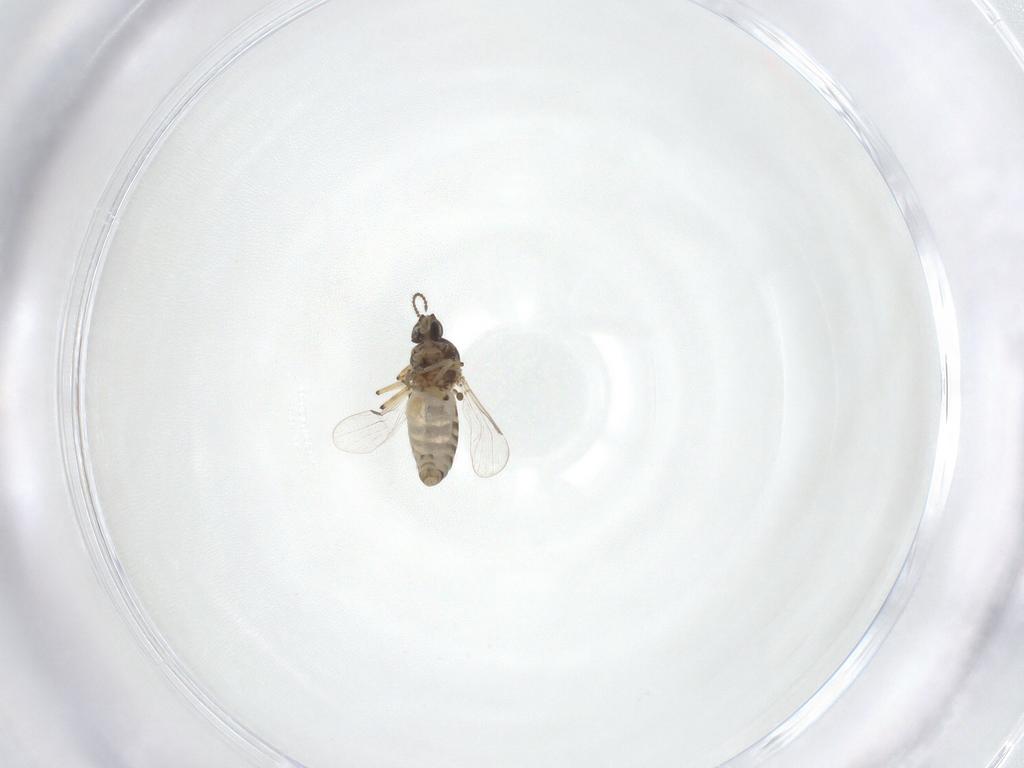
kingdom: Animalia
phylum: Arthropoda
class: Insecta
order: Diptera
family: Ceratopogonidae
